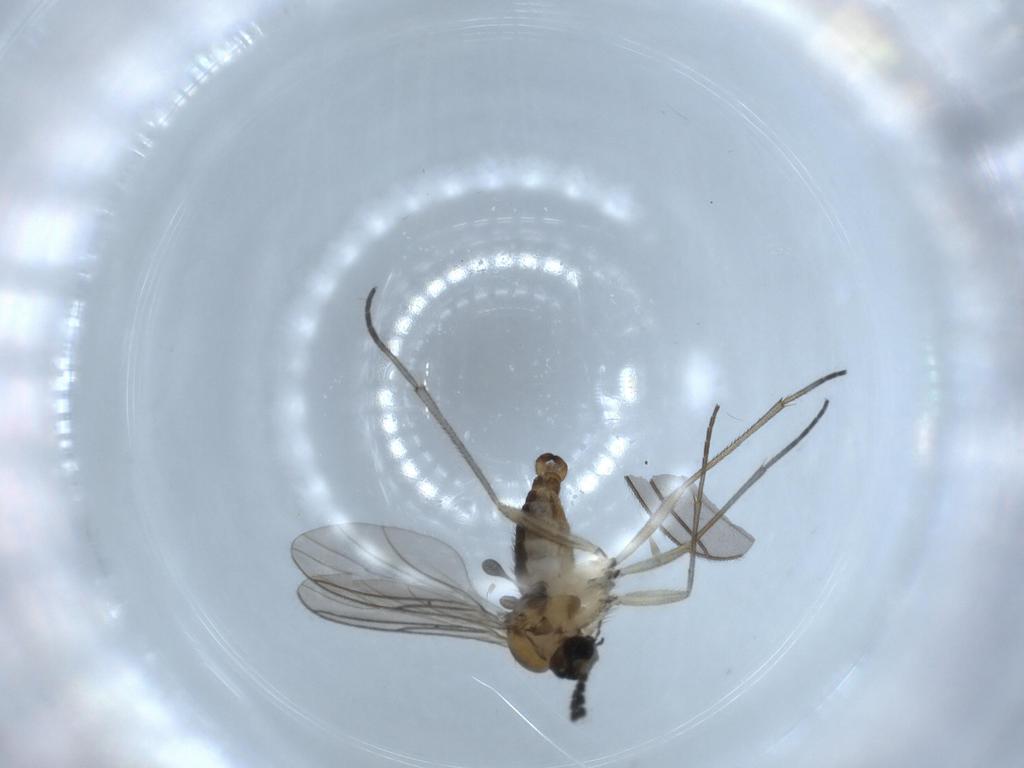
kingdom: Animalia
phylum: Arthropoda
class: Insecta
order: Diptera
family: Sciaridae
